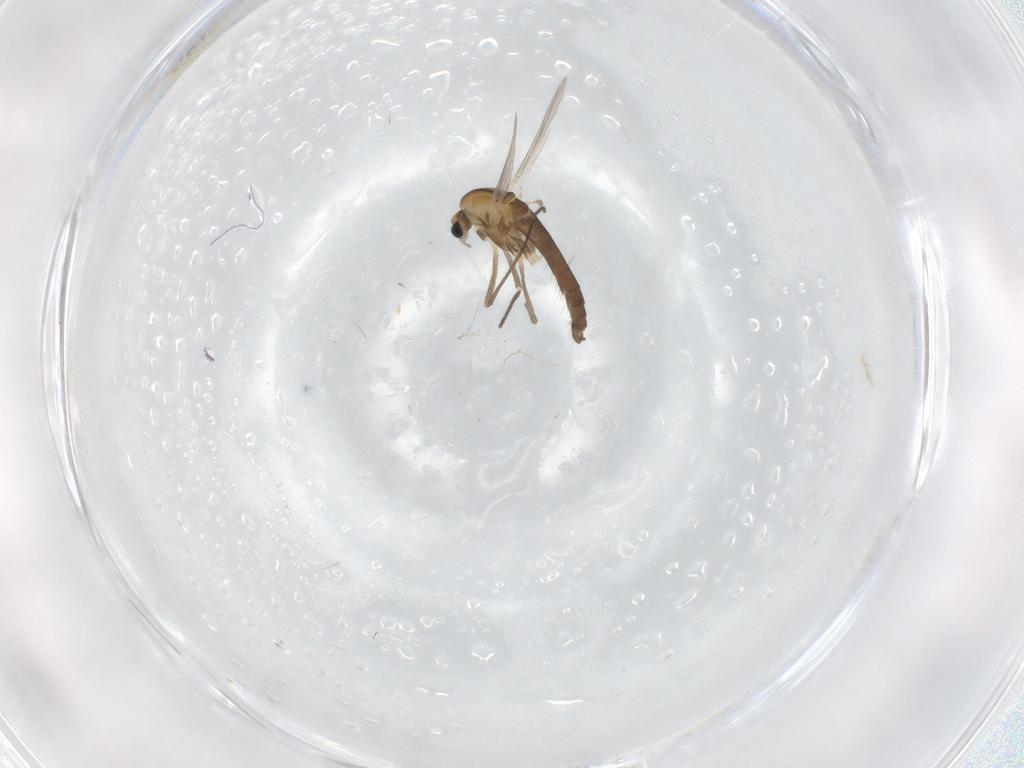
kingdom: Animalia
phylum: Arthropoda
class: Insecta
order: Diptera
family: Chironomidae
